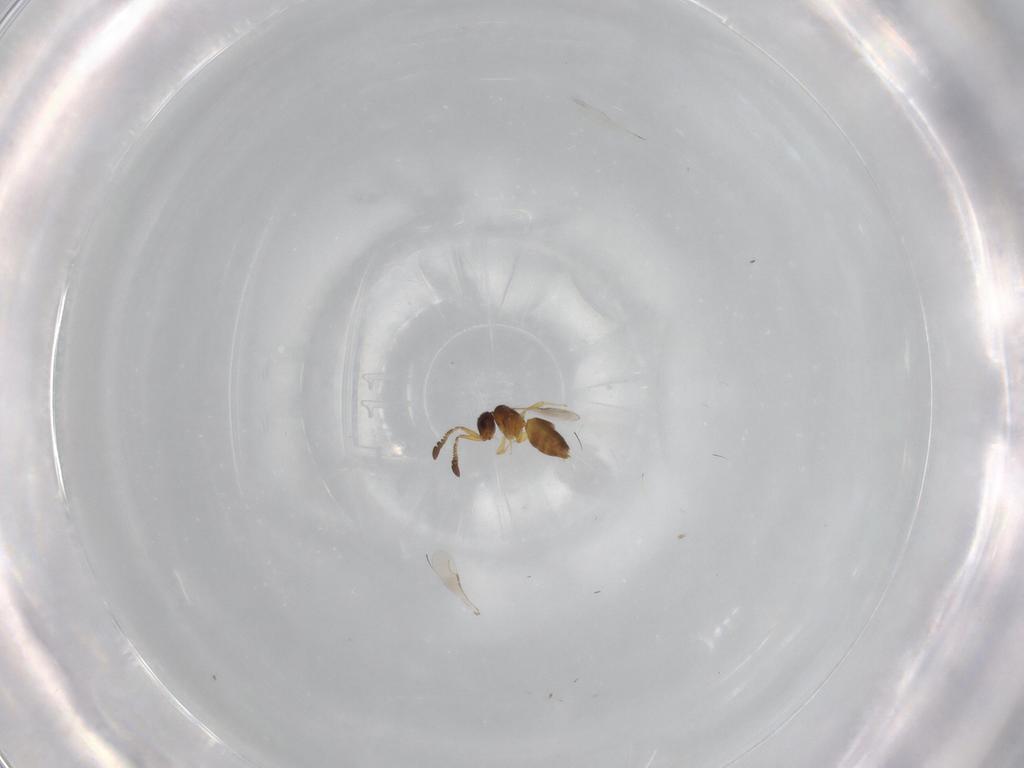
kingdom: Animalia
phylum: Arthropoda
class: Insecta
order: Hymenoptera
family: Ceraphronidae
